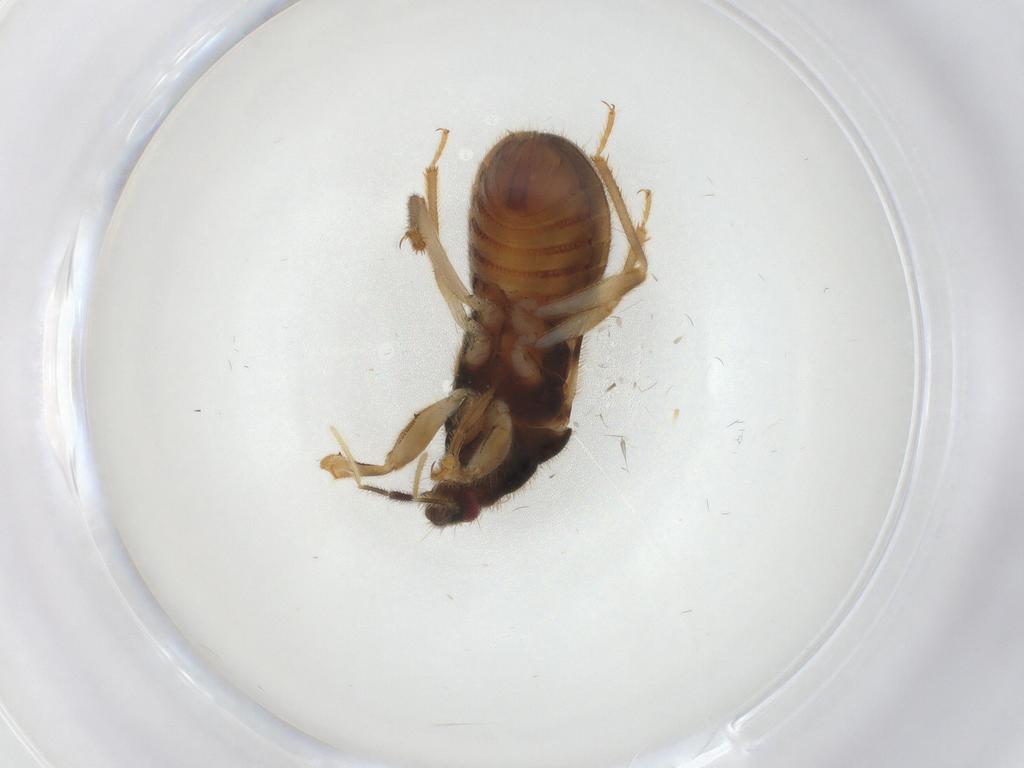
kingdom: Animalia
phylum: Arthropoda
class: Insecta
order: Hemiptera
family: Nabidae
